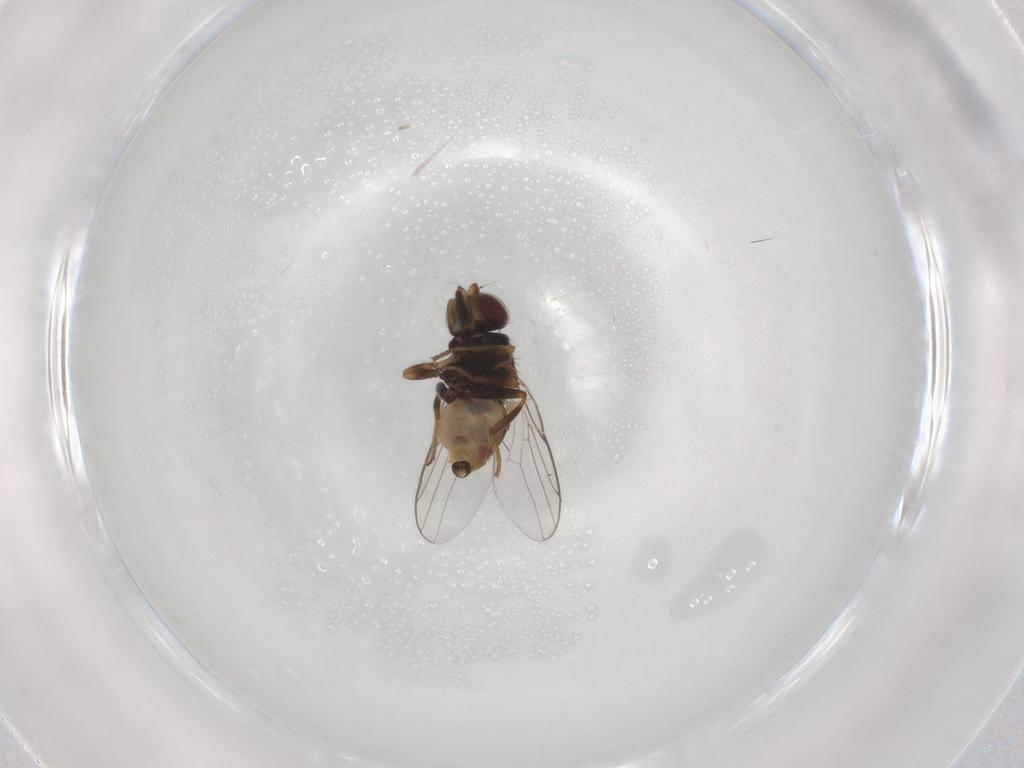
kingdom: Animalia
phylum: Arthropoda
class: Insecta
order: Diptera
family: Chloropidae
